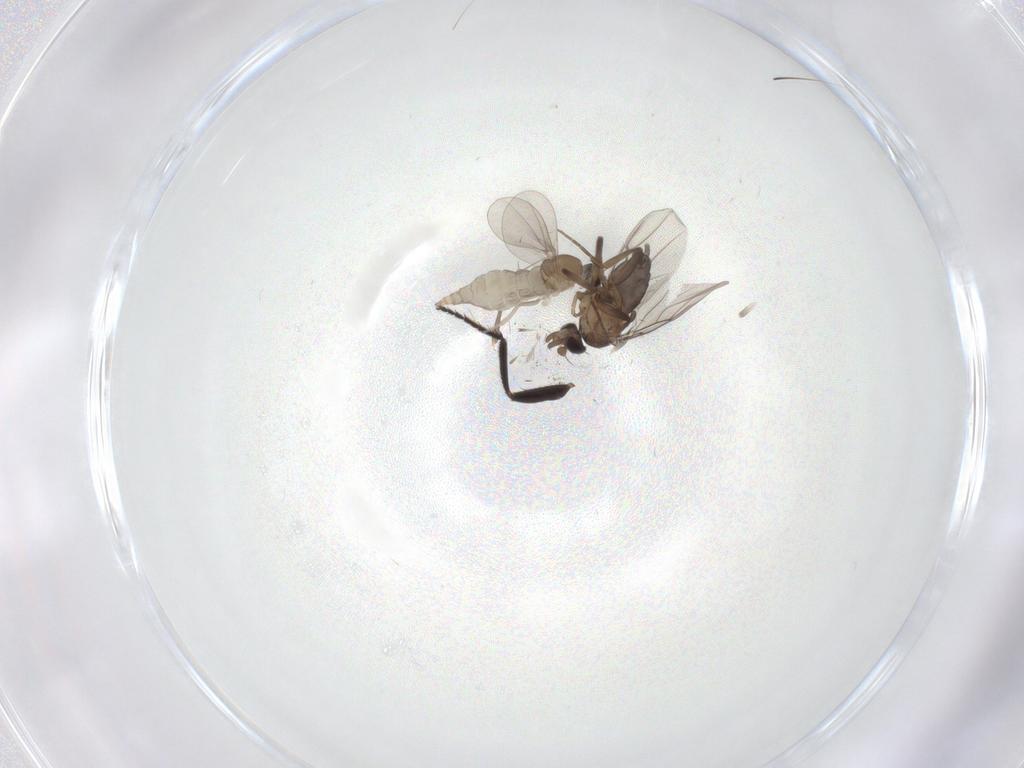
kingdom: Animalia
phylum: Arthropoda
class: Insecta
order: Diptera
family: Cecidomyiidae
